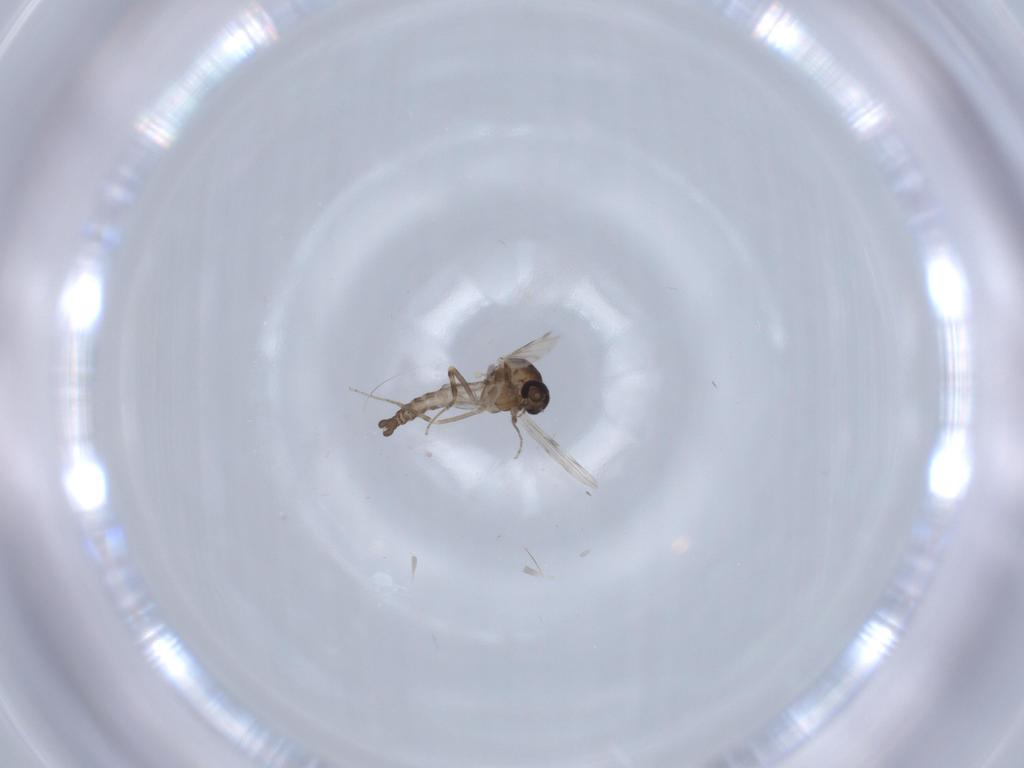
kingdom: Animalia
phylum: Arthropoda
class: Insecta
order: Diptera
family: Ceratopogonidae
